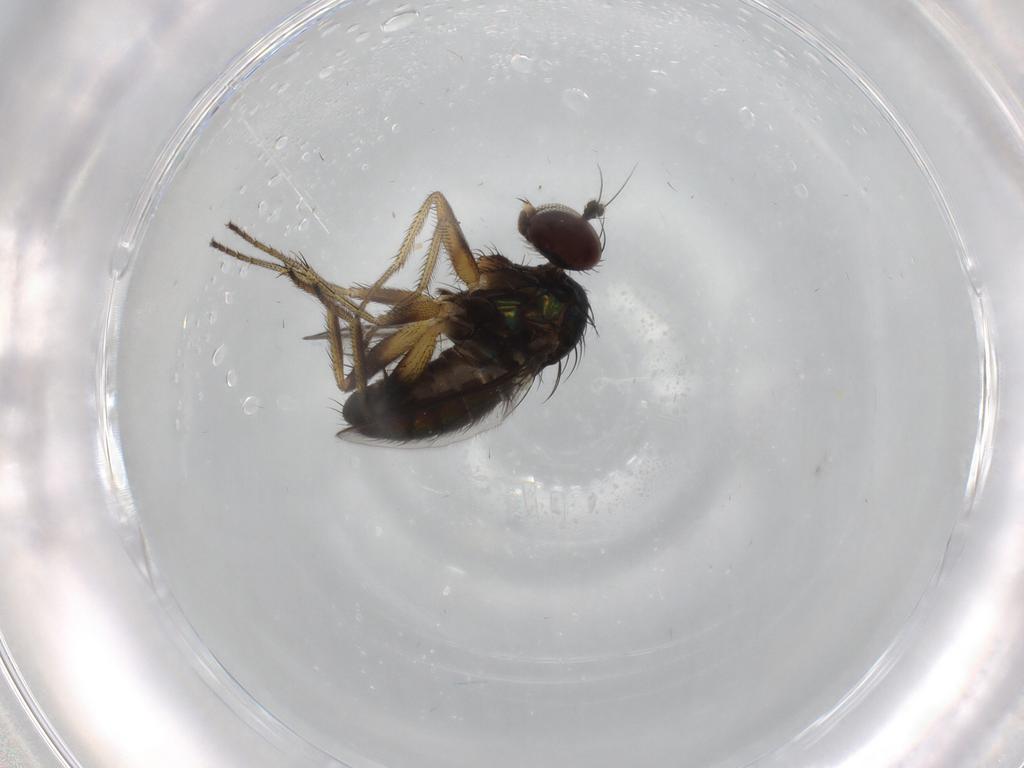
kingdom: Animalia
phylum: Arthropoda
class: Insecta
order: Diptera
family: Dolichopodidae
